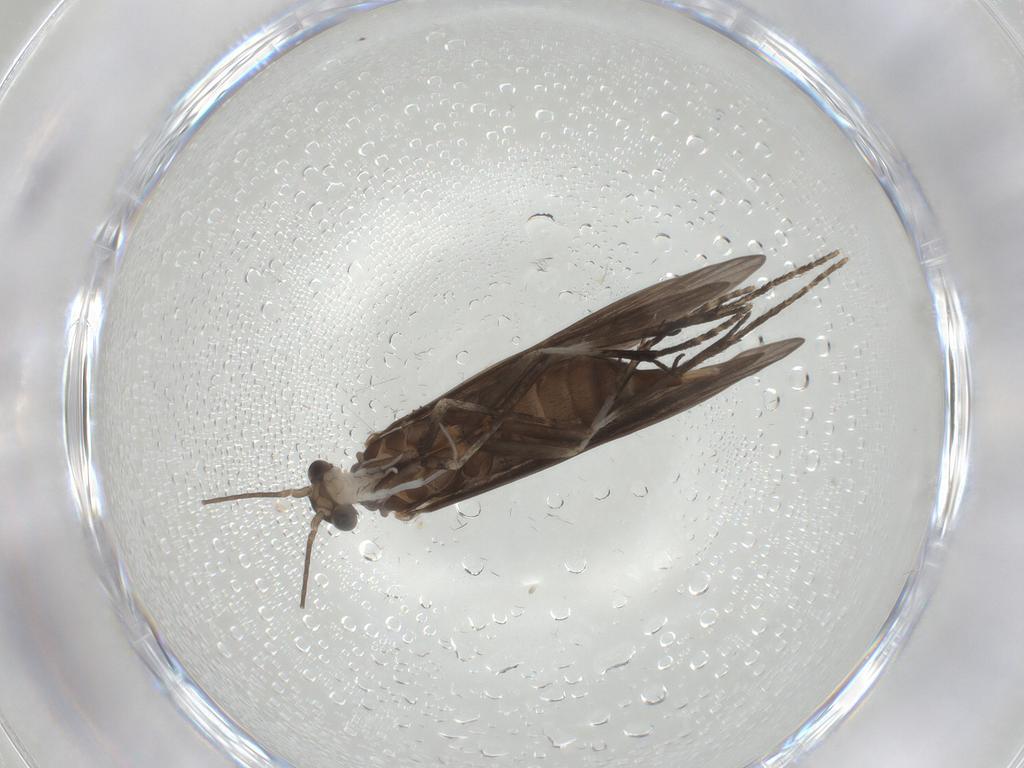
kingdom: Animalia
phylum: Arthropoda
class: Insecta
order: Trichoptera
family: Xiphocentronidae
